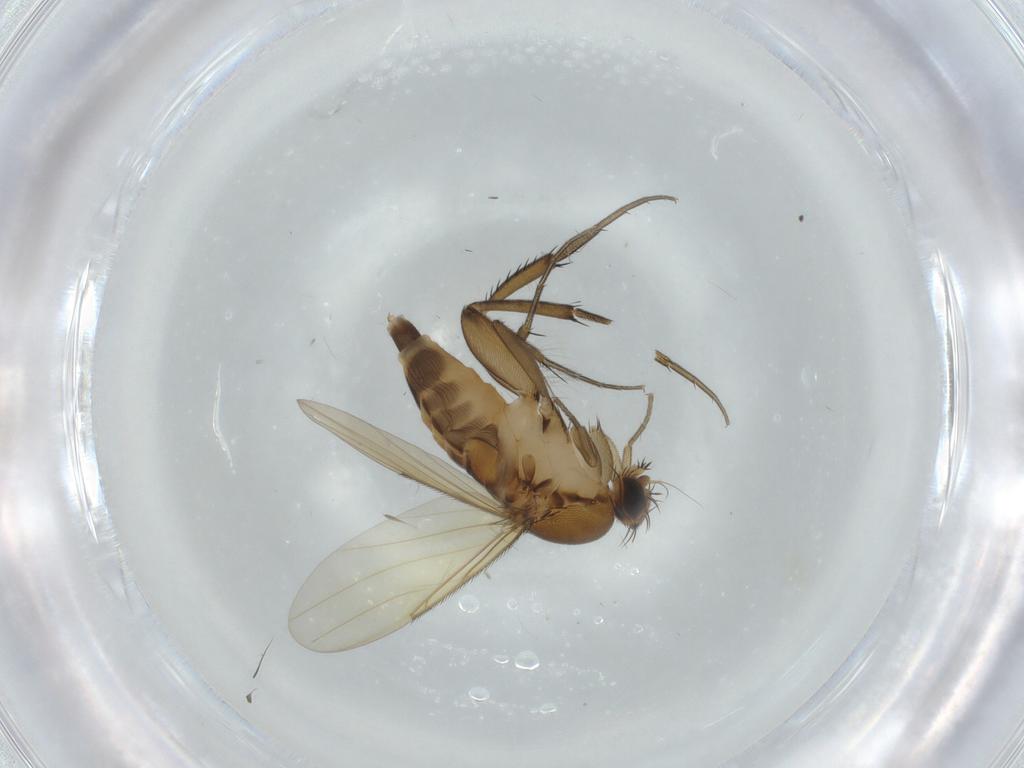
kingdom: Animalia
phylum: Arthropoda
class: Insecta
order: Diptera
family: Phoridae
